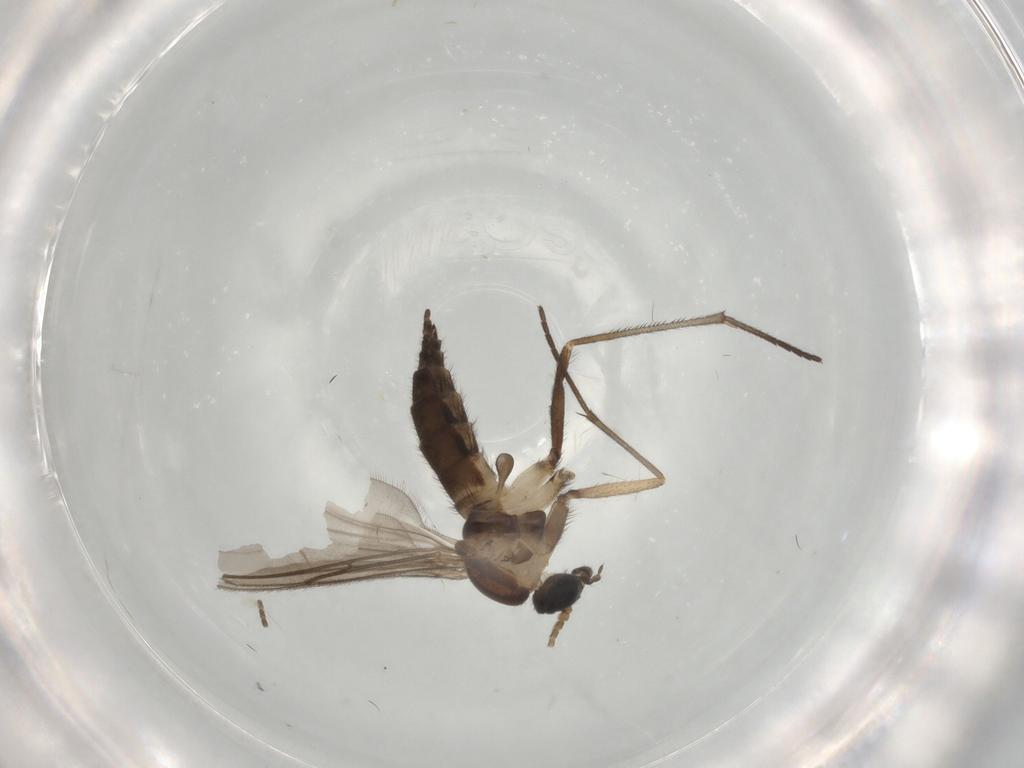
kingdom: Animalia
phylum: Arthropoda
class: Insecta
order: Diptera
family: Sciaridae
